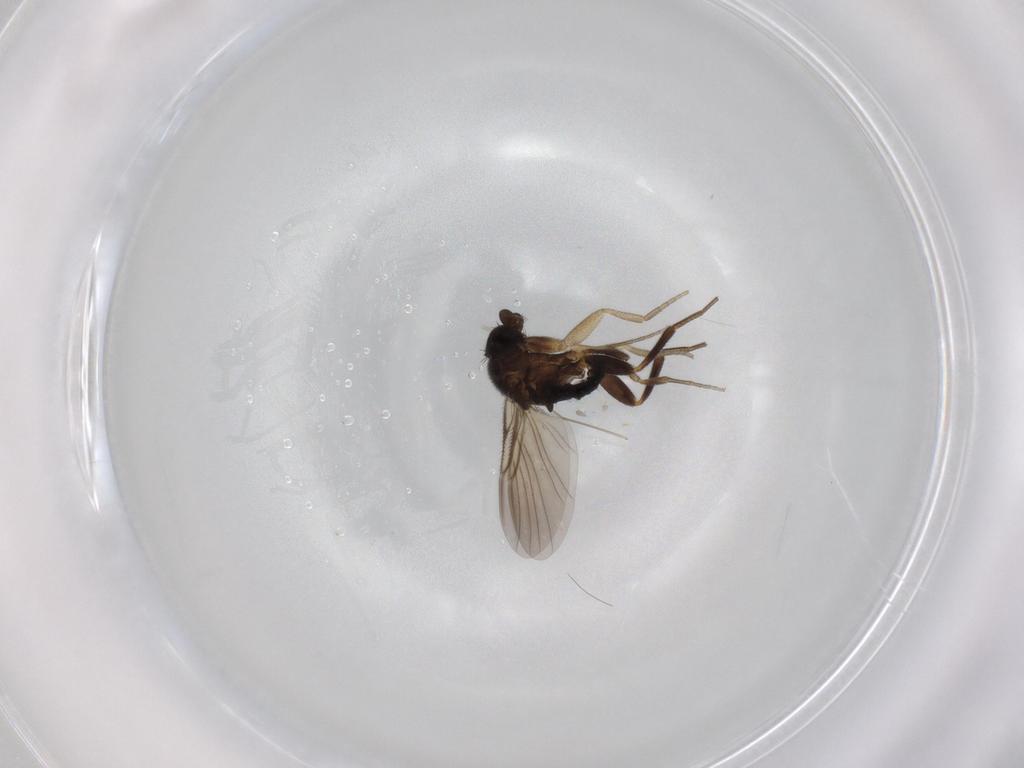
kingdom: Animalia
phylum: Arthropoda
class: Insecta
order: Diptera
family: Cecidomyiidae
